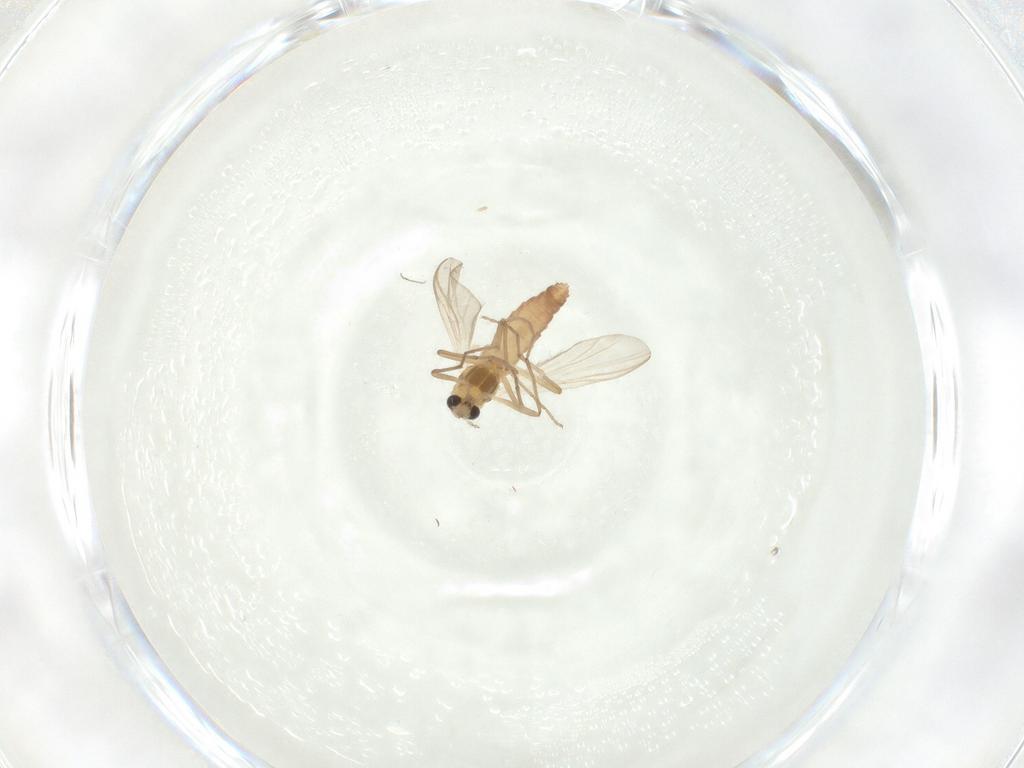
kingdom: Animalia
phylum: Arthropoda
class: Insecta
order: Diptera
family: Chironomidae
